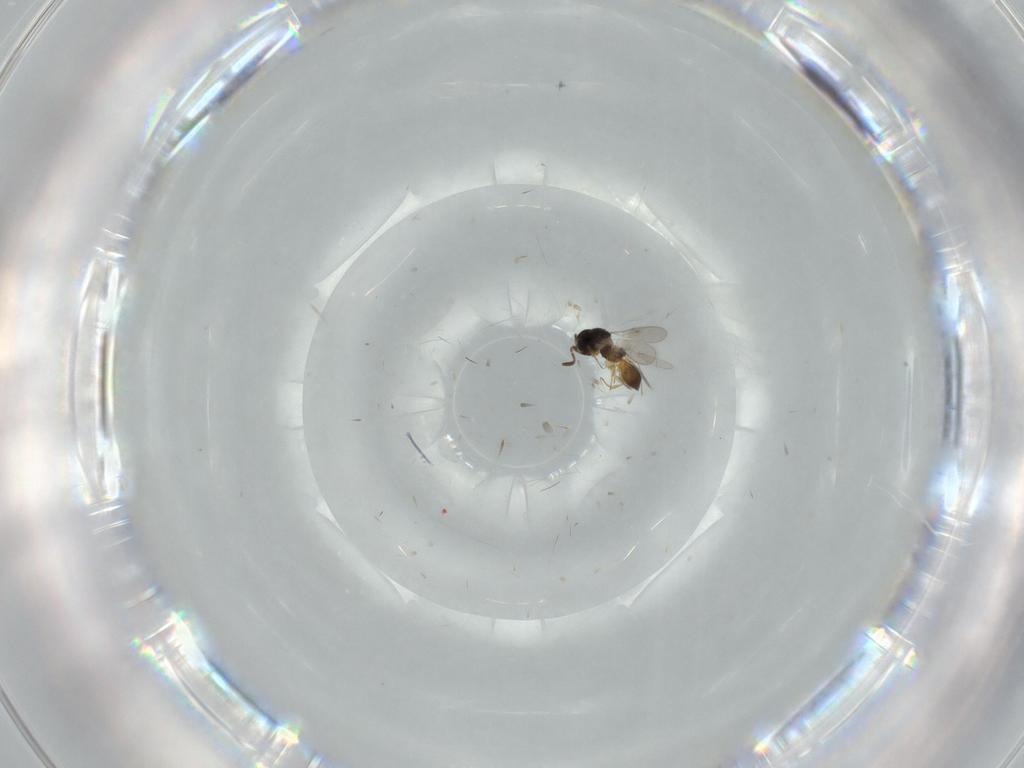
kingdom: Animalia
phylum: Arthropoda
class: Insecta
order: Hymenoptera
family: Scelionidae
